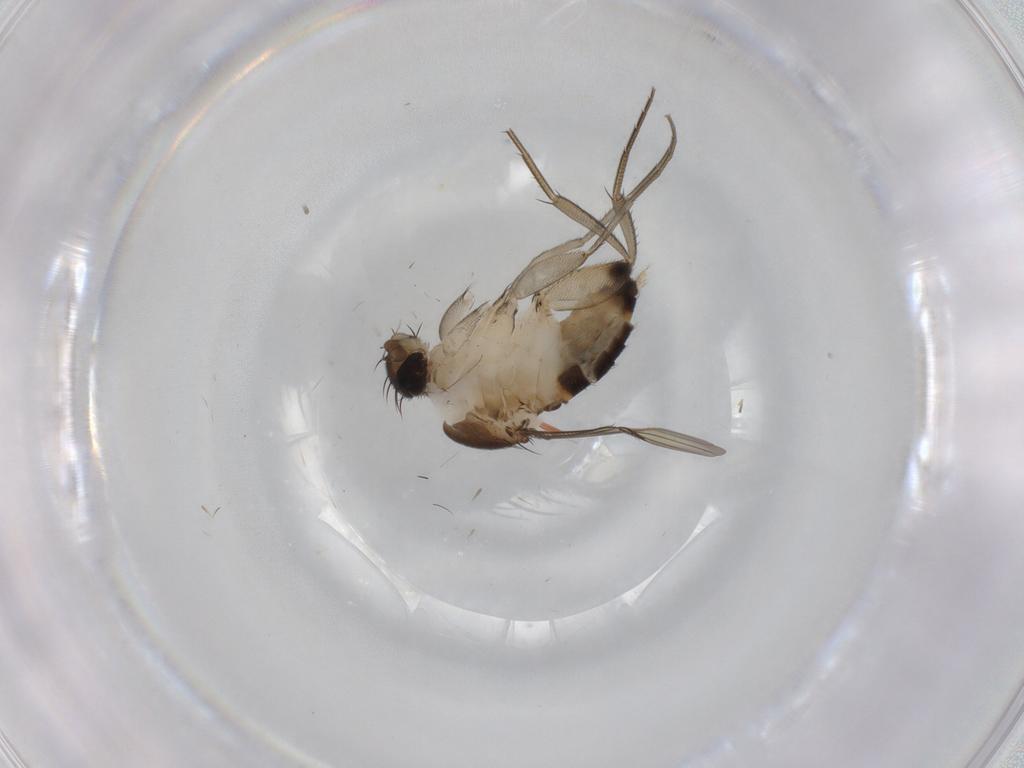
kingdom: Animalia
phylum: Arthropoda
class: Insecta
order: Diptera
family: Phoridae
